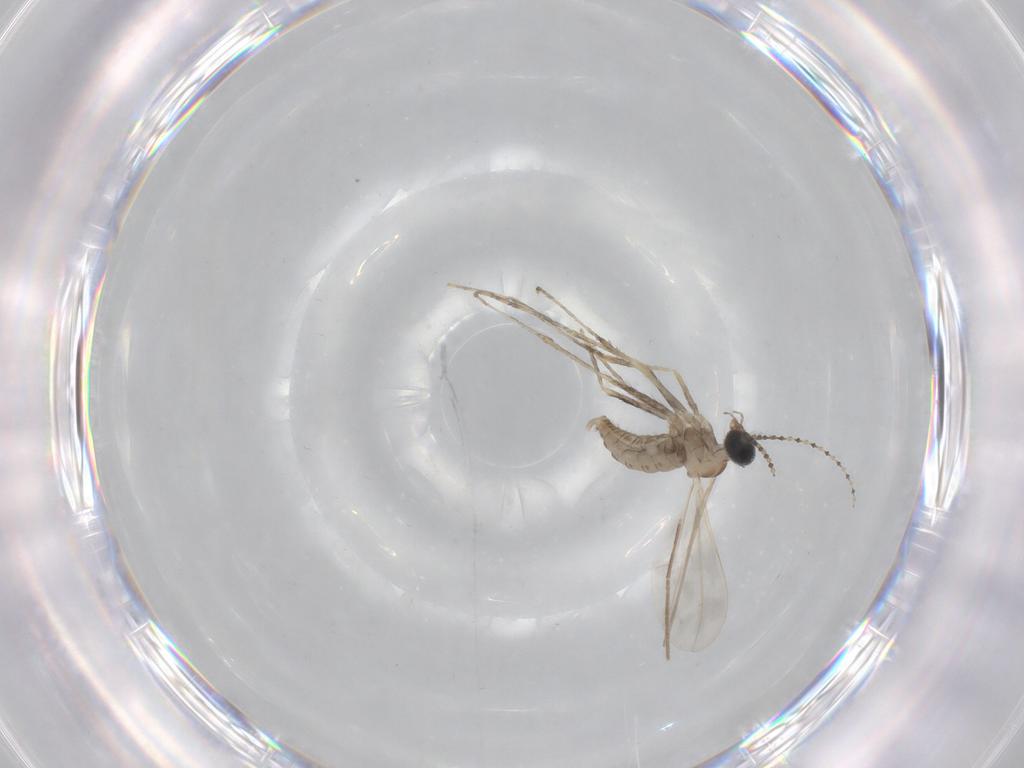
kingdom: Animalia
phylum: Arthropoda
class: Insecta
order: Diptera
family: Cecidomyiidae
